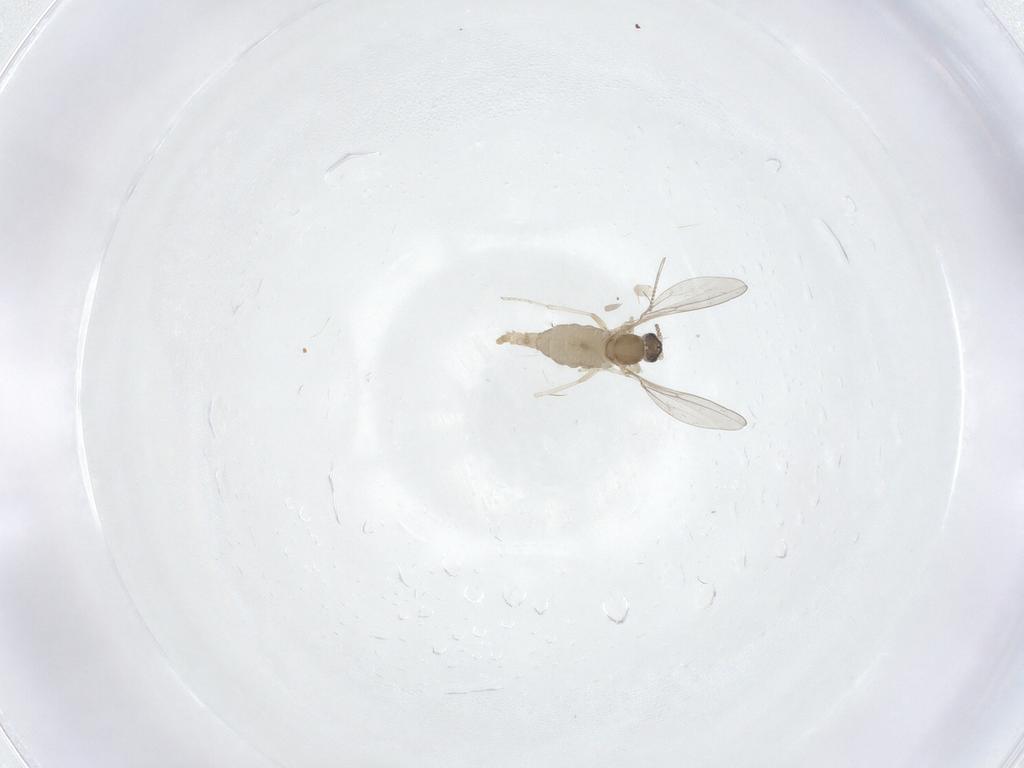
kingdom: Animalia
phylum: Arthropoda
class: Insecta
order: Diptera
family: Cecidomyiidae
